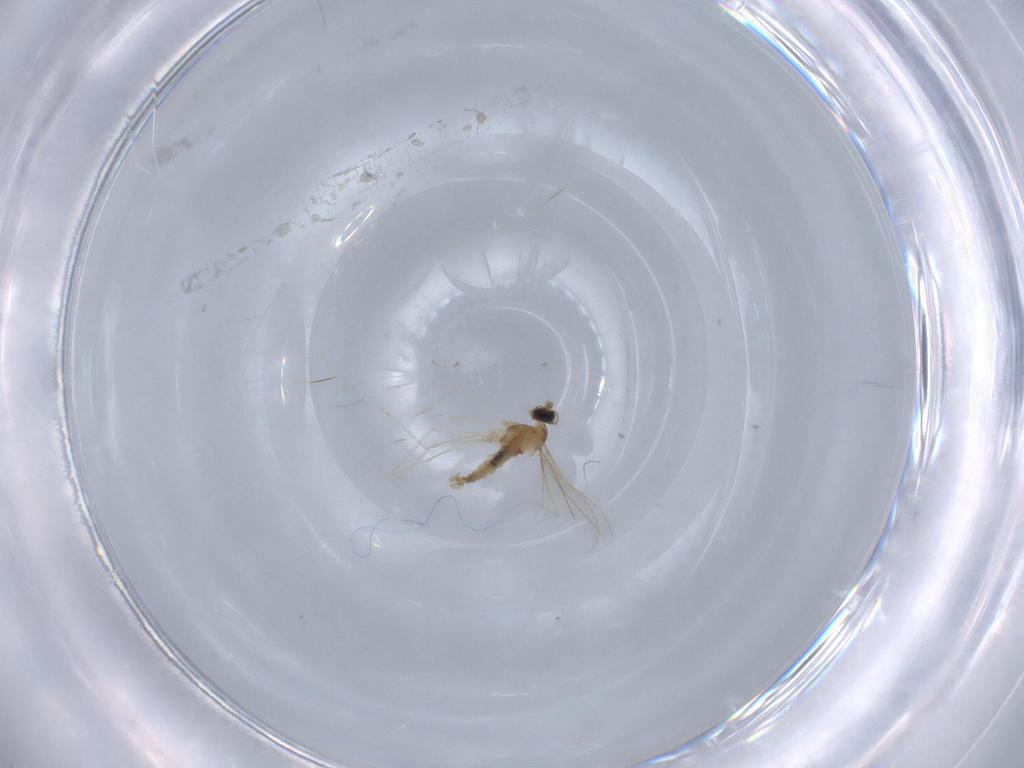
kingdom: Animalia
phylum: Arthropoda
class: Insecta
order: Diptera
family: Cecidomyiidae
